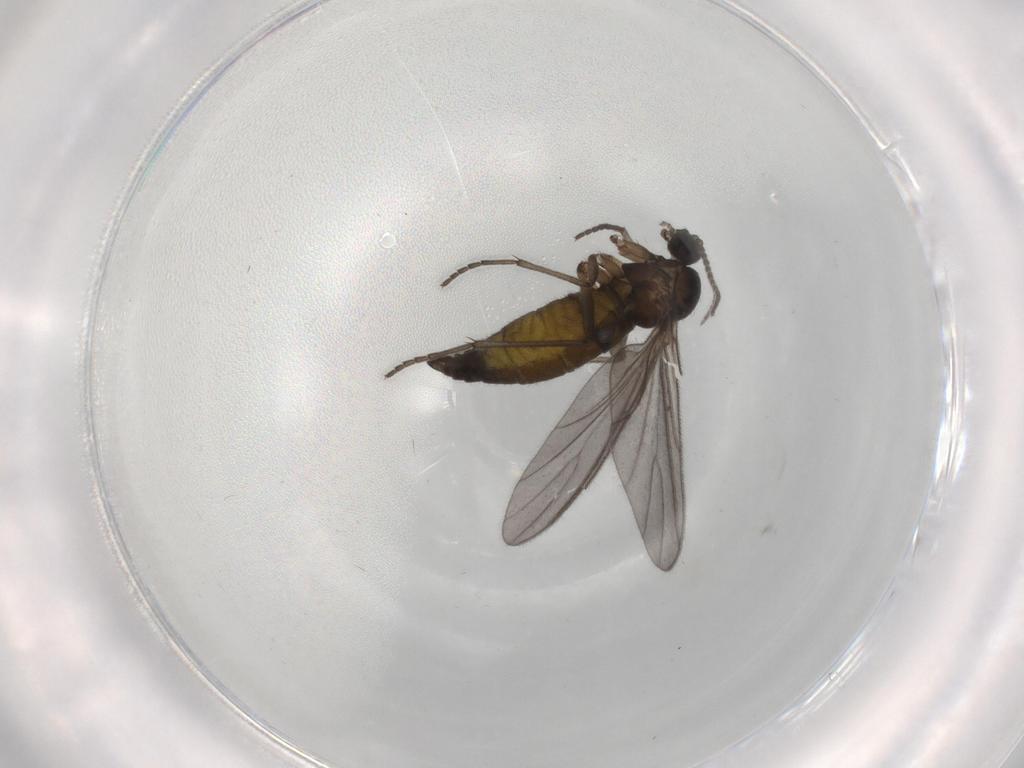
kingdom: Animalia
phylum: Arthropoda
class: Insecta
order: Diptera
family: Sciaridae
